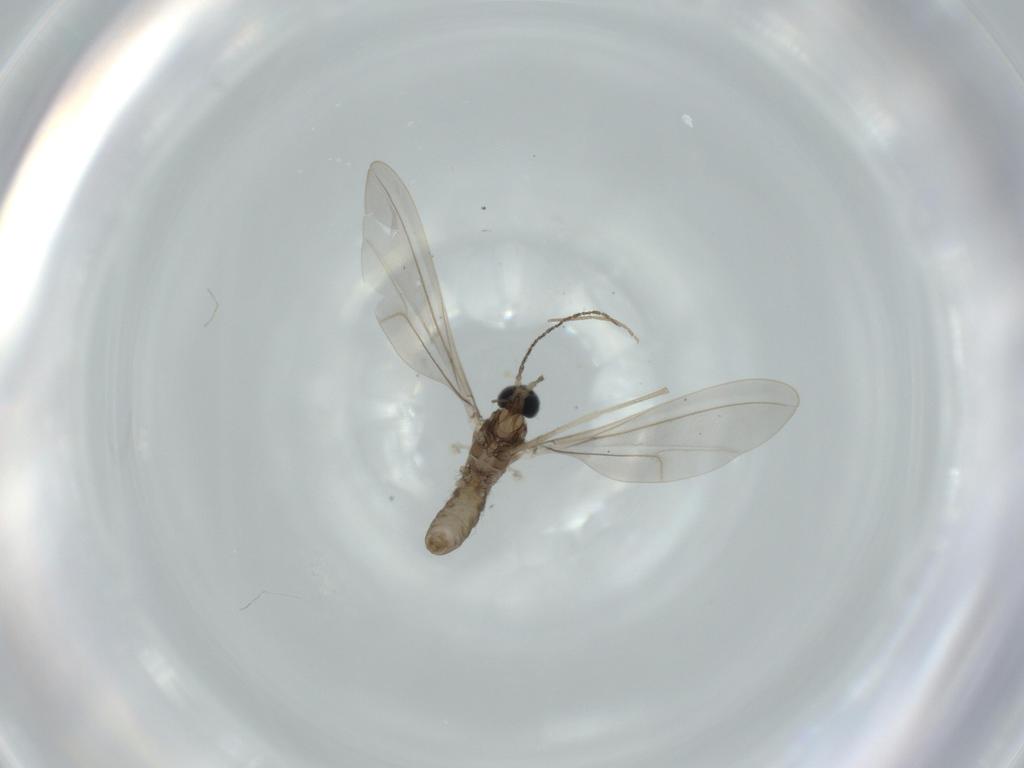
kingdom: Animalia
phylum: Arthropoda
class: Insecta
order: Diptera
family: Cecidomyiidae
